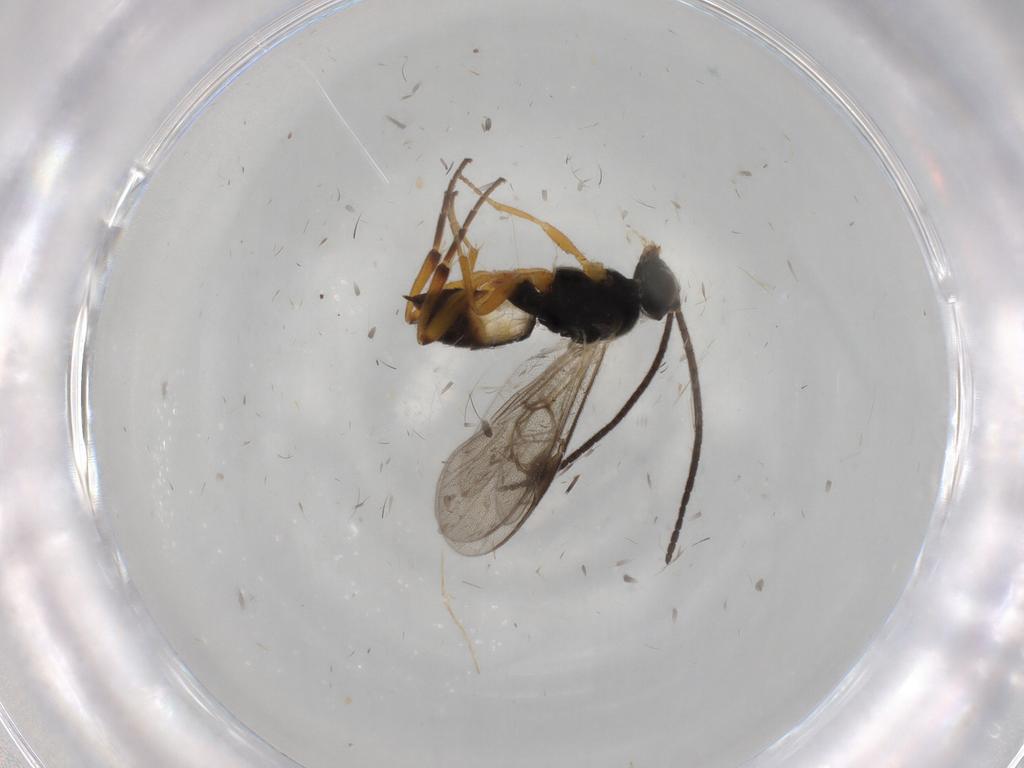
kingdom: Animalia
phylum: Arthropoda
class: Insecta
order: Hymenoptera
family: Braconidae
